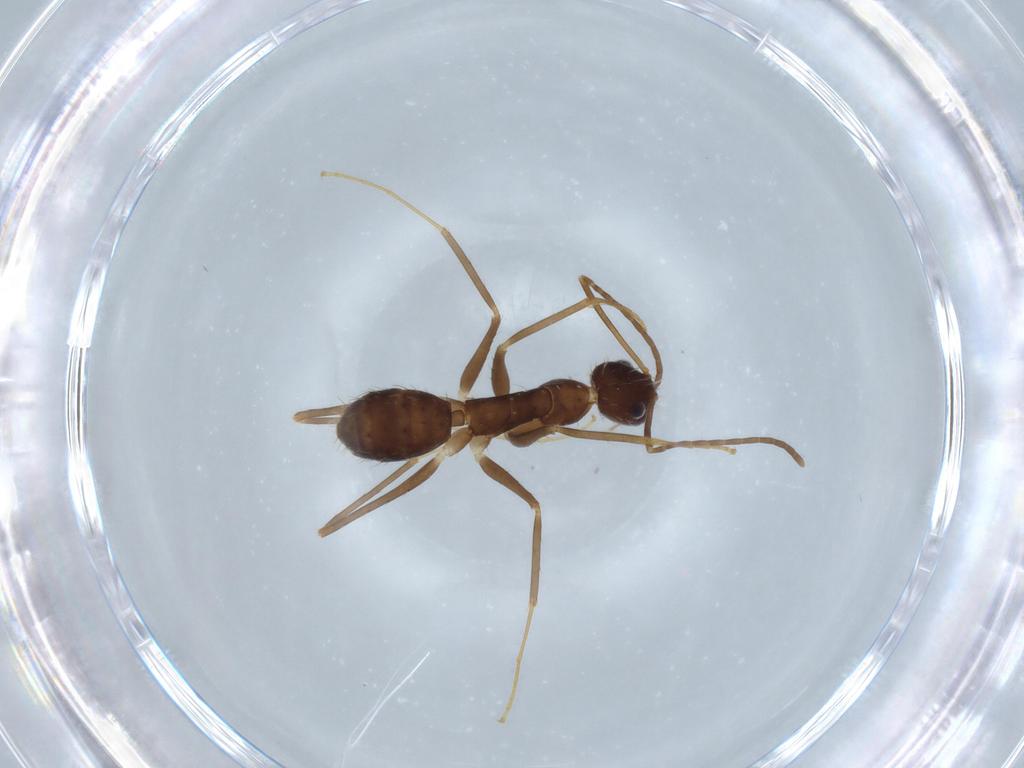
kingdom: Animalia
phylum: Arthropoda
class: Insecta
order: Hymenoptera
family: Formicidae
